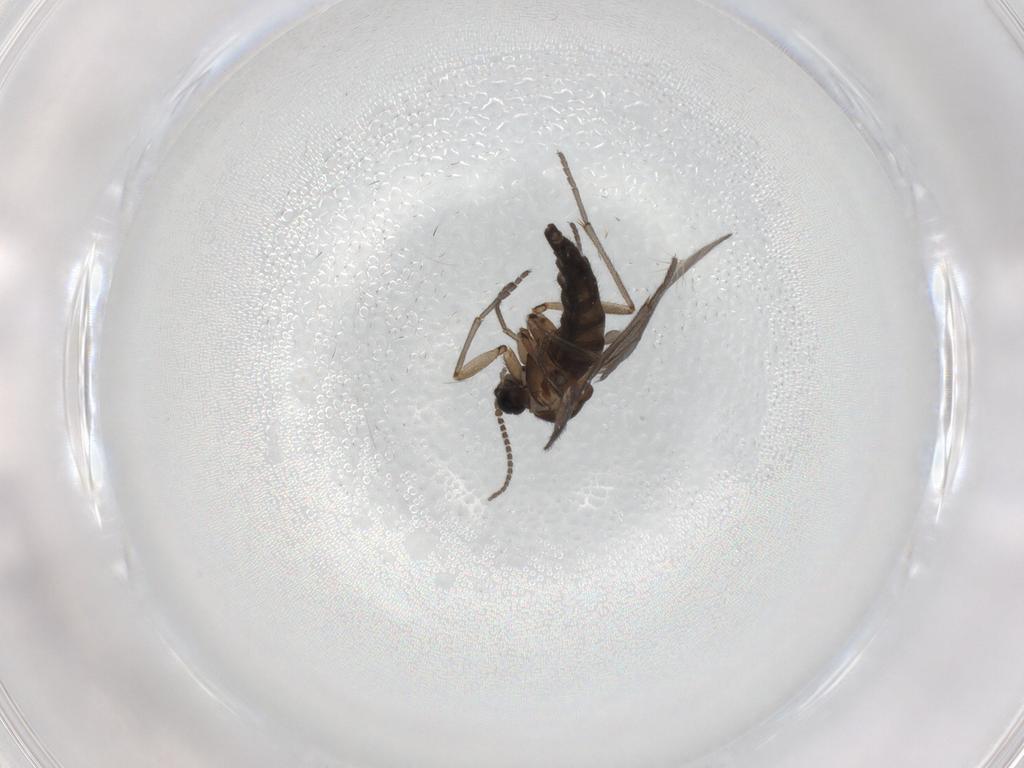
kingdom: Animalia
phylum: Arthropoda
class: Insecta
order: Diptera
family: Sciaridae
